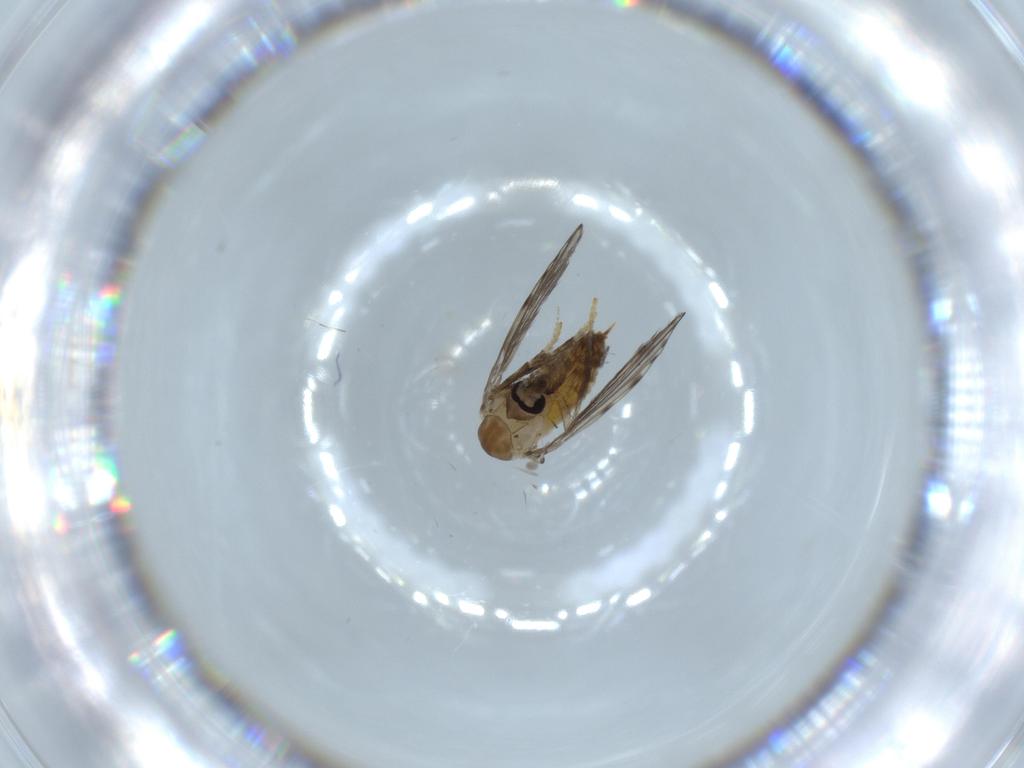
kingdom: Animalia
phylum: Arthropoda
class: Insecta
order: Diptera
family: Psychodidae
